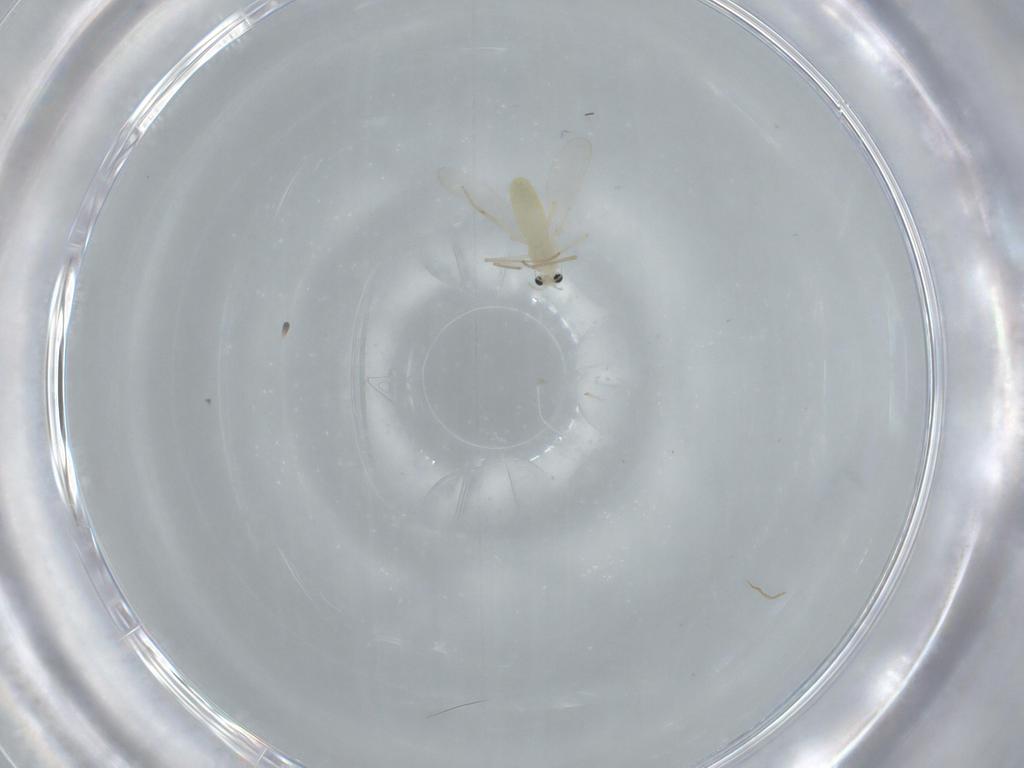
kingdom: Animalia
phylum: Arthropoda
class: Insecta
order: Diptera
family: Chironomidae
